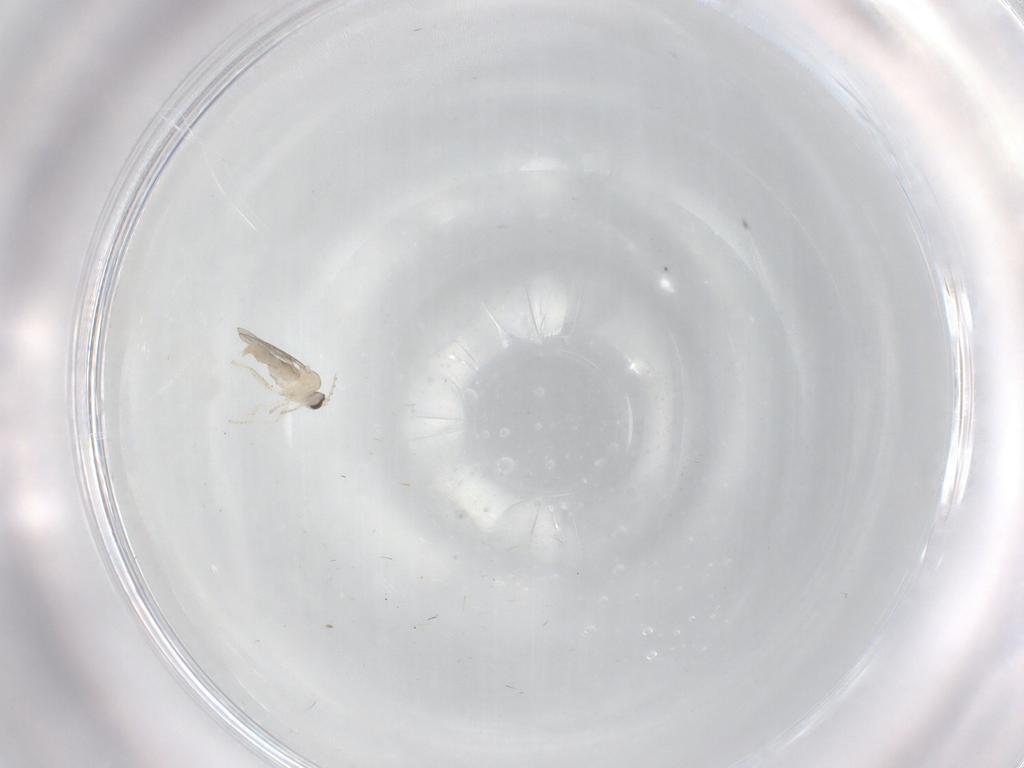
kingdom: Animalia
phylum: Arthropoda
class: Insecta
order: Diptera
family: Cecidomyiidae
